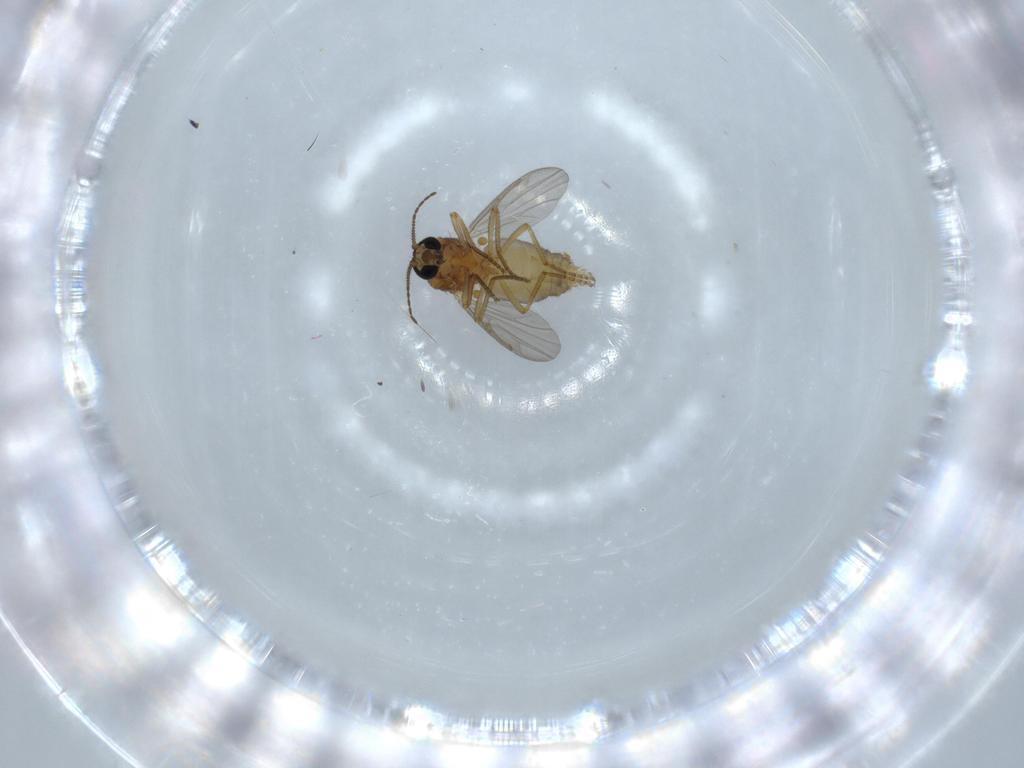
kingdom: Animalia
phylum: Arthropoda
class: Insecta
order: Diptera
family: Ceratopogonidae
